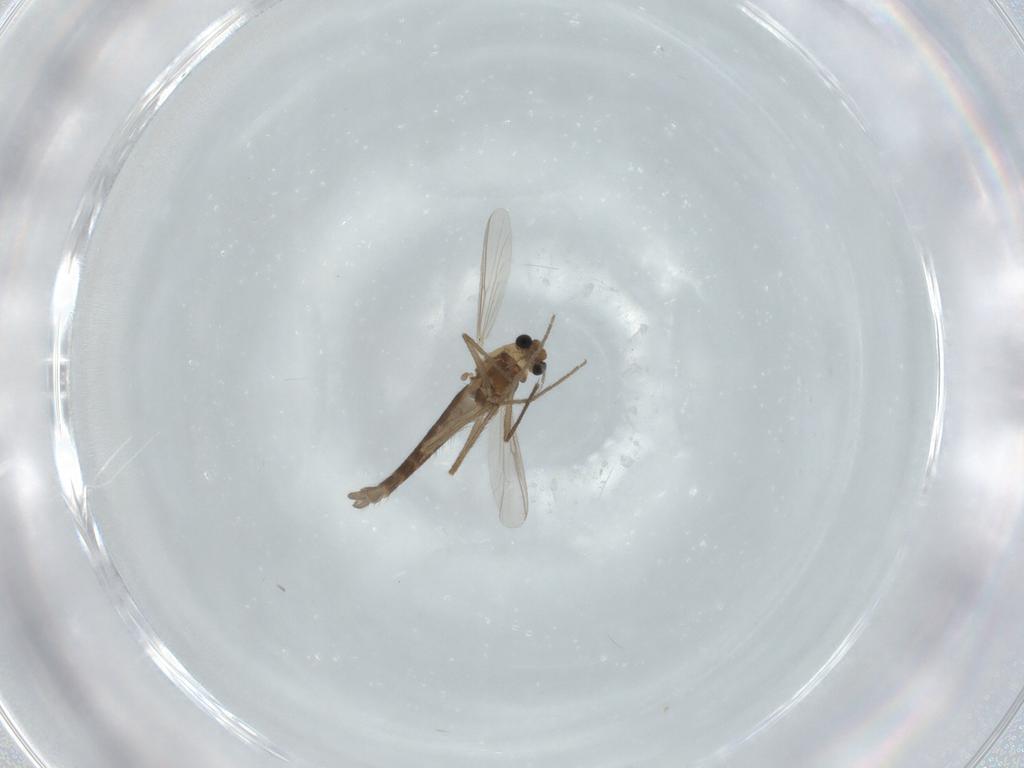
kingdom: Animalia
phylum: Arthropoda
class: Insecta
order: Diptera
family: Chironomidae
